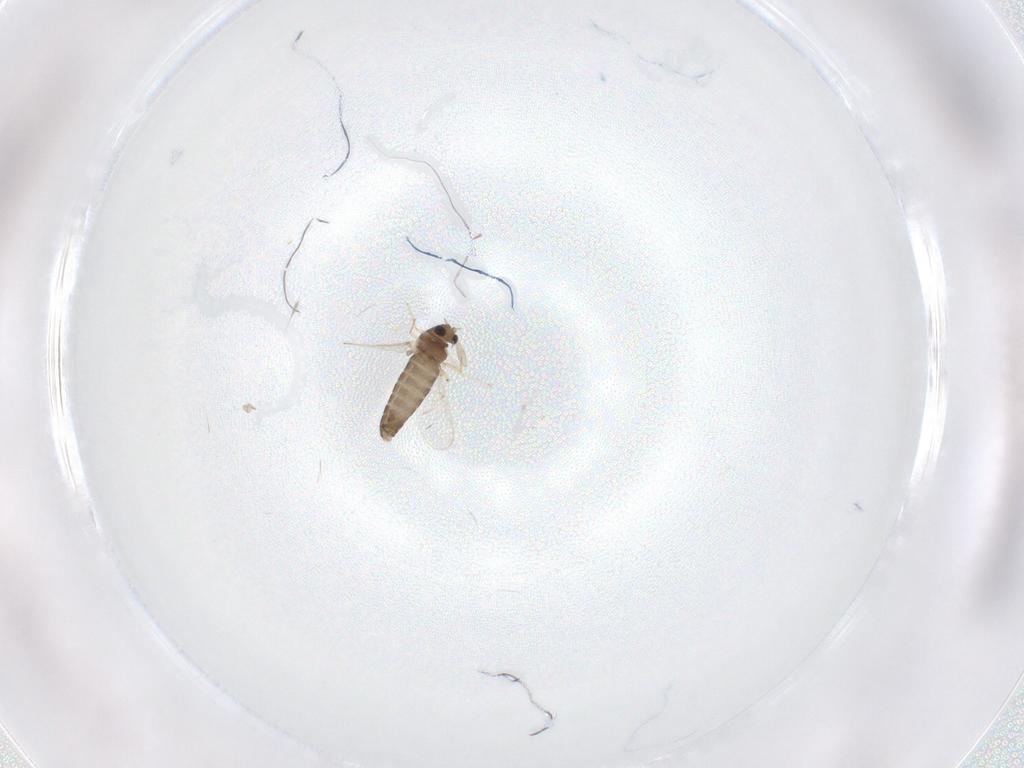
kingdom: Animalia
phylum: Arthropoda
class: Insecta
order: Diptera
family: Chironomidae
